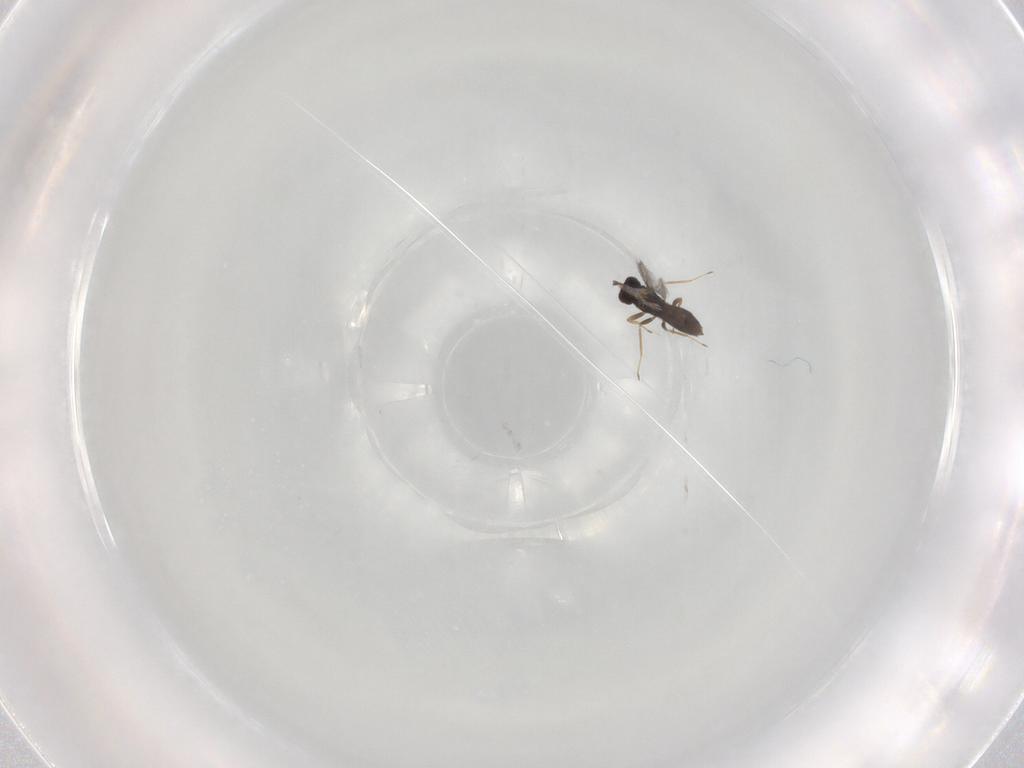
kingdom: Animalia
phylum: Arthropoda
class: Insecta
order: Hymenoptera
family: Mymaridae
